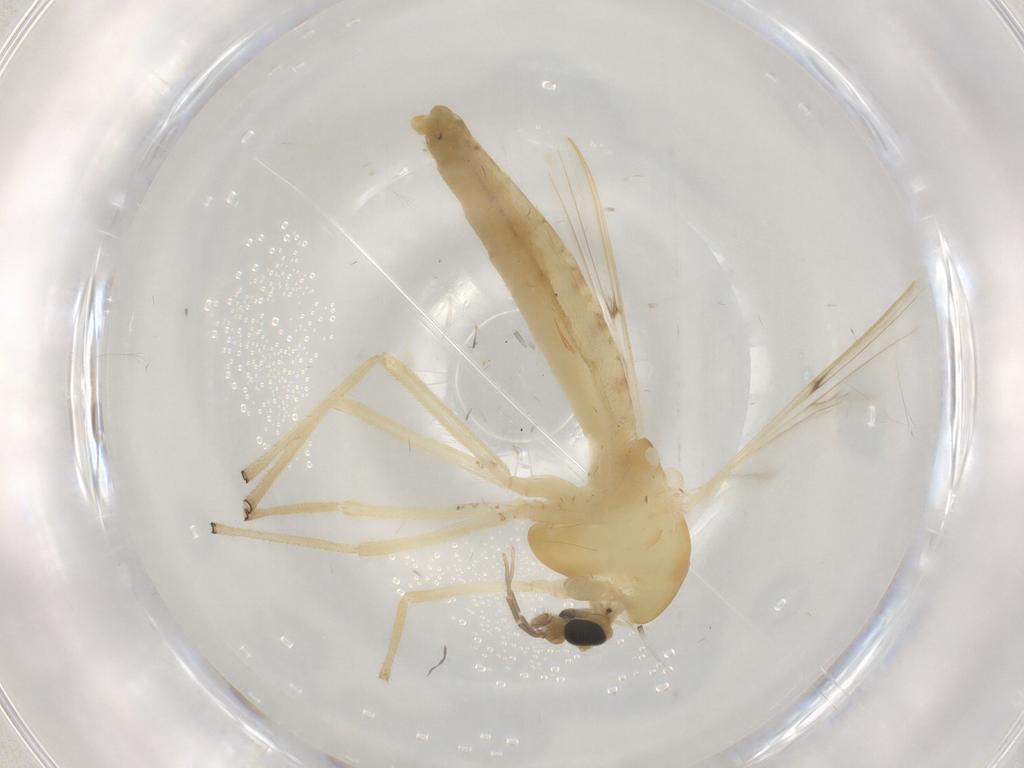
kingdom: Animalia
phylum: Arthropoda
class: Insecta
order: Diptera
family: Chironomidae
